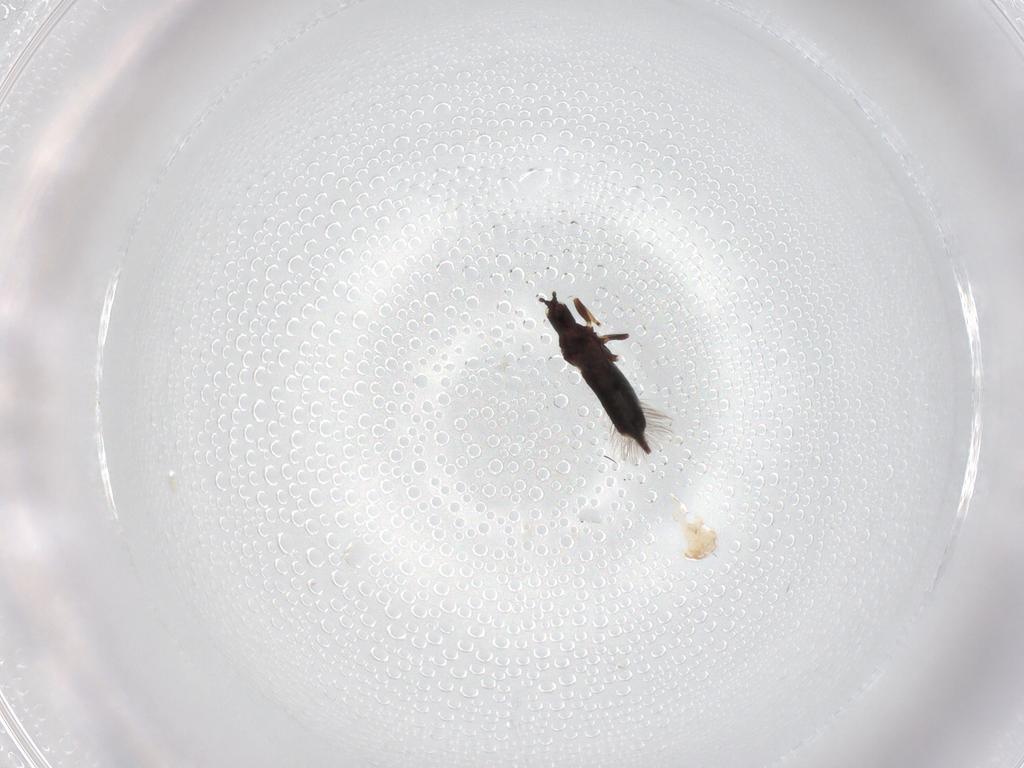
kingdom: Animalia
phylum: Arthropoda
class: Insecta
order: Thysanoptera
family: Phlaeothripidae
